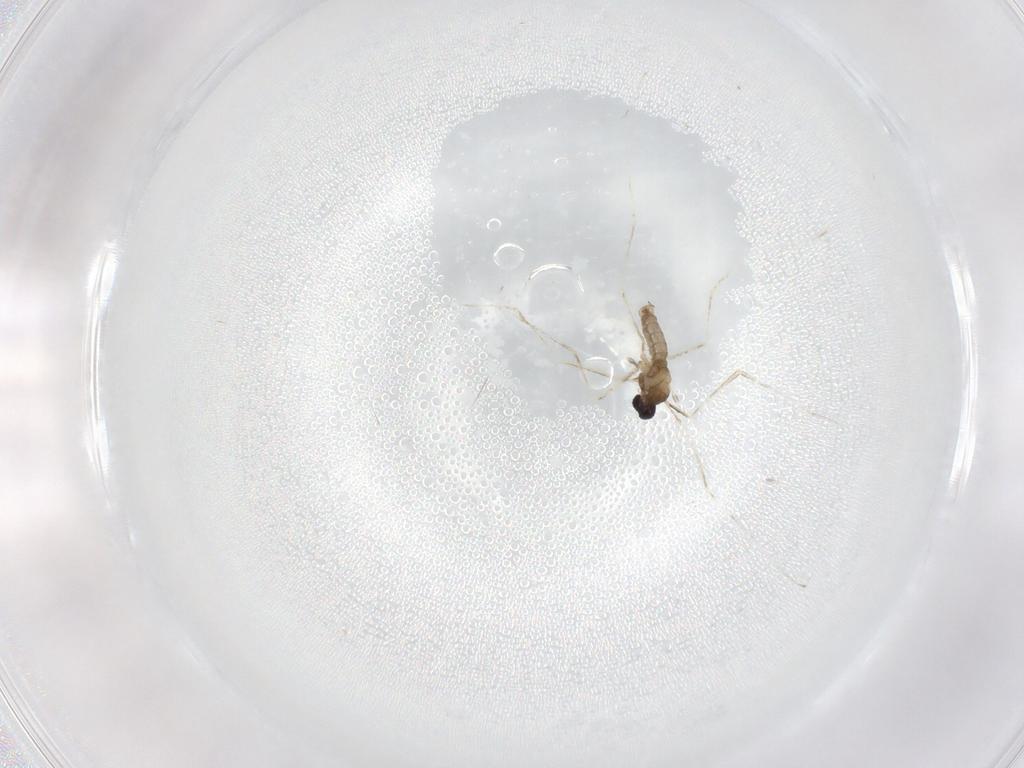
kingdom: Animalia
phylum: Arthropoda
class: Insecta
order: Diptera
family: Cecidomyiidae
